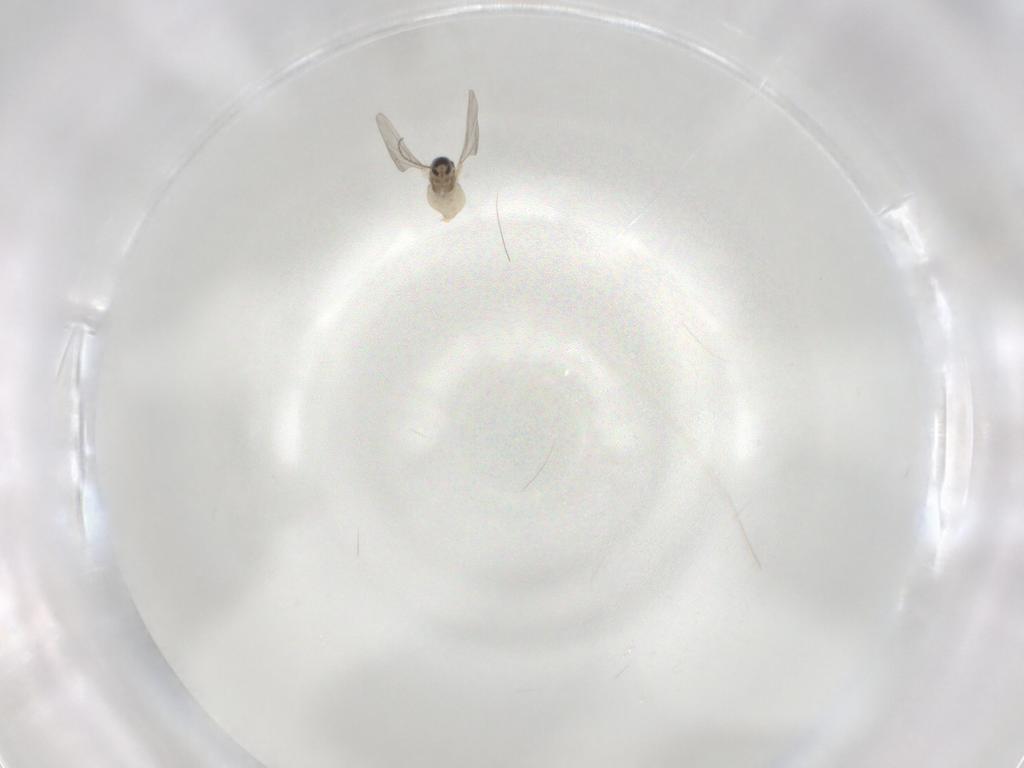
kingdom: Animalia
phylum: Arthropoda
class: Insecta
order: Diptera
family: Cecidomyiidae
